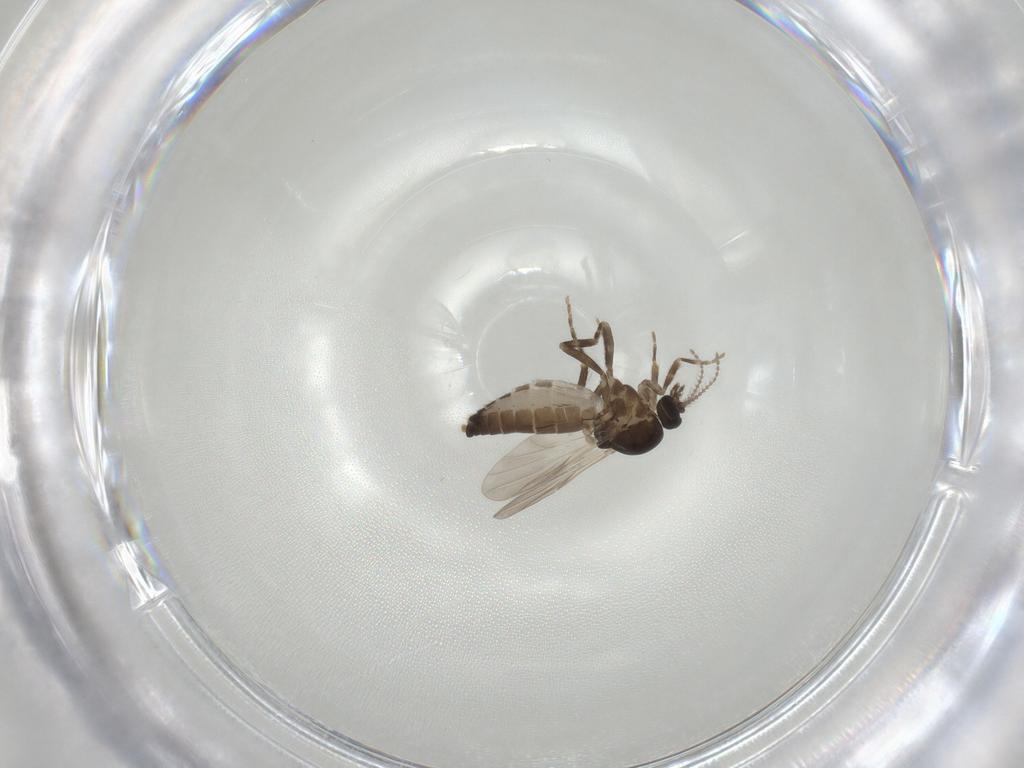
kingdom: Animalia
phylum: Arthropoda
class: Insecta
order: Diptera
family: Ceratopogonidae
